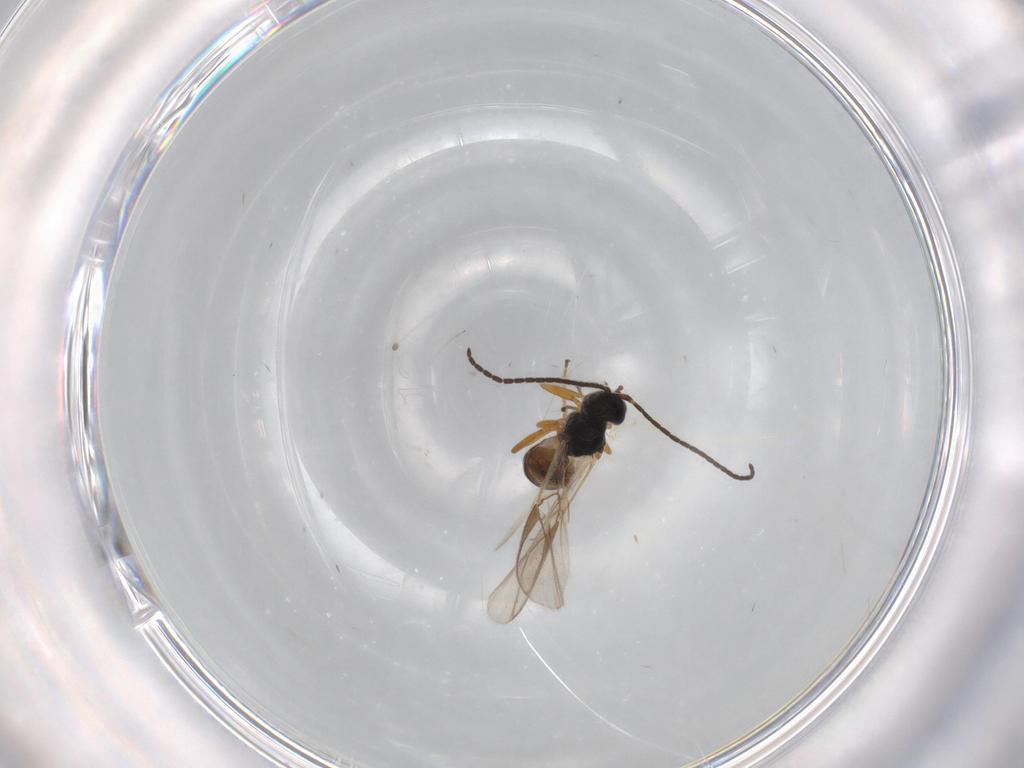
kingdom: Animalia
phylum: Arthropoda
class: Insecta
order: Hymenoptera
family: Braconidae
